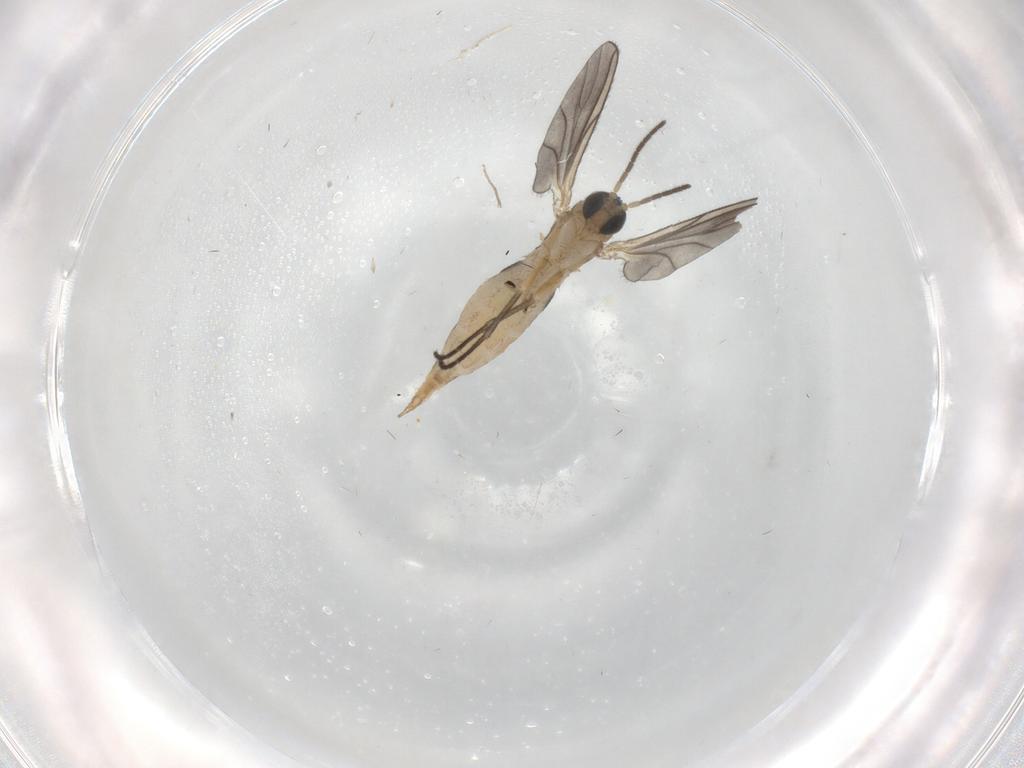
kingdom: Animalia
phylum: Arthropoda
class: Insecta
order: Diptera
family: Sciaridae
